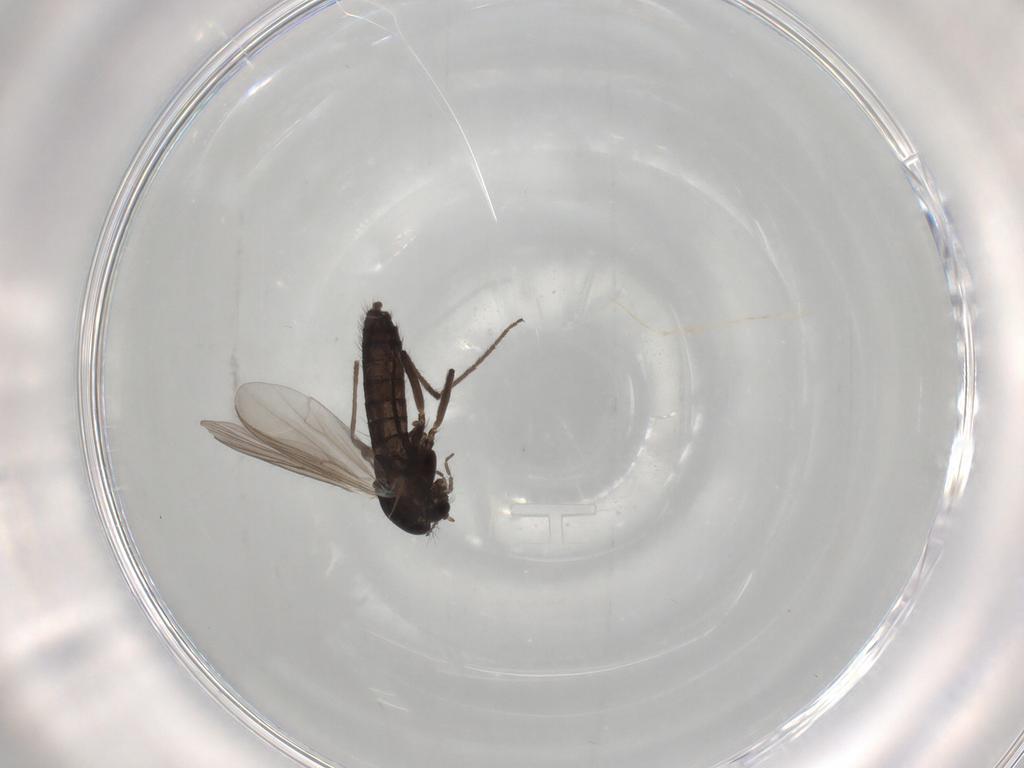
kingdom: Animalia
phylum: Arthropoda
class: Insecta
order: Diptera
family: Chironomidae
